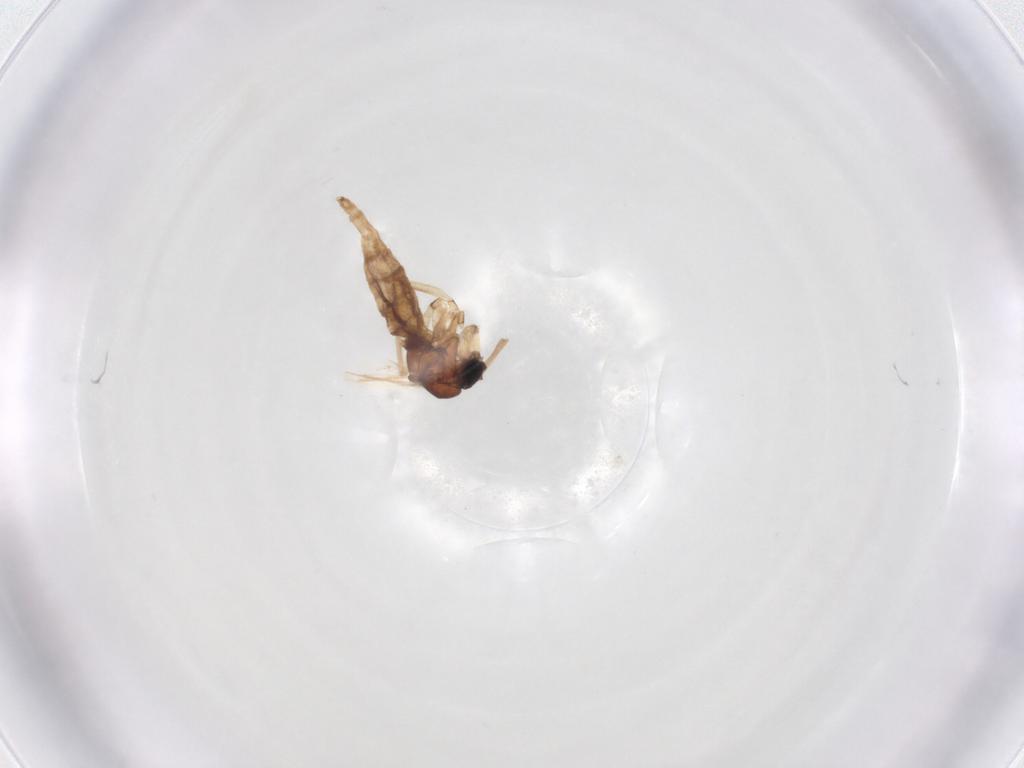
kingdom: Animalia
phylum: Arthropoda
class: Insecta
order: Diptera
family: Sciaridae
